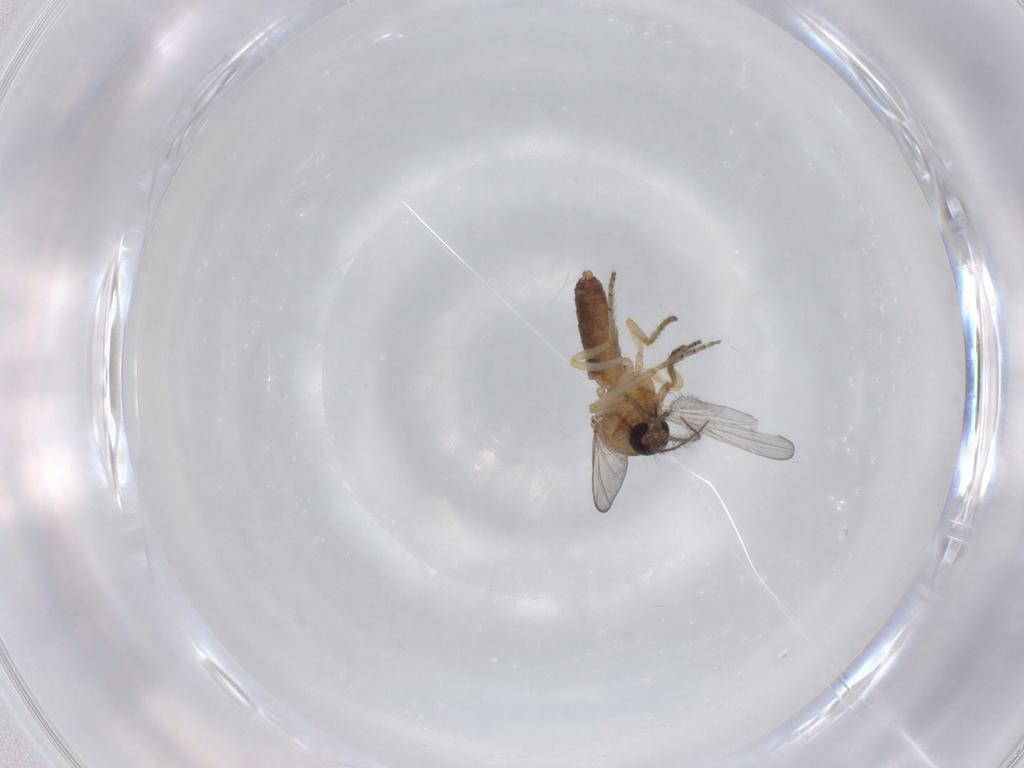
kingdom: Animalia
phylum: Arthropoda
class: Insecta
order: Diptera
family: Ceratopogonidae
